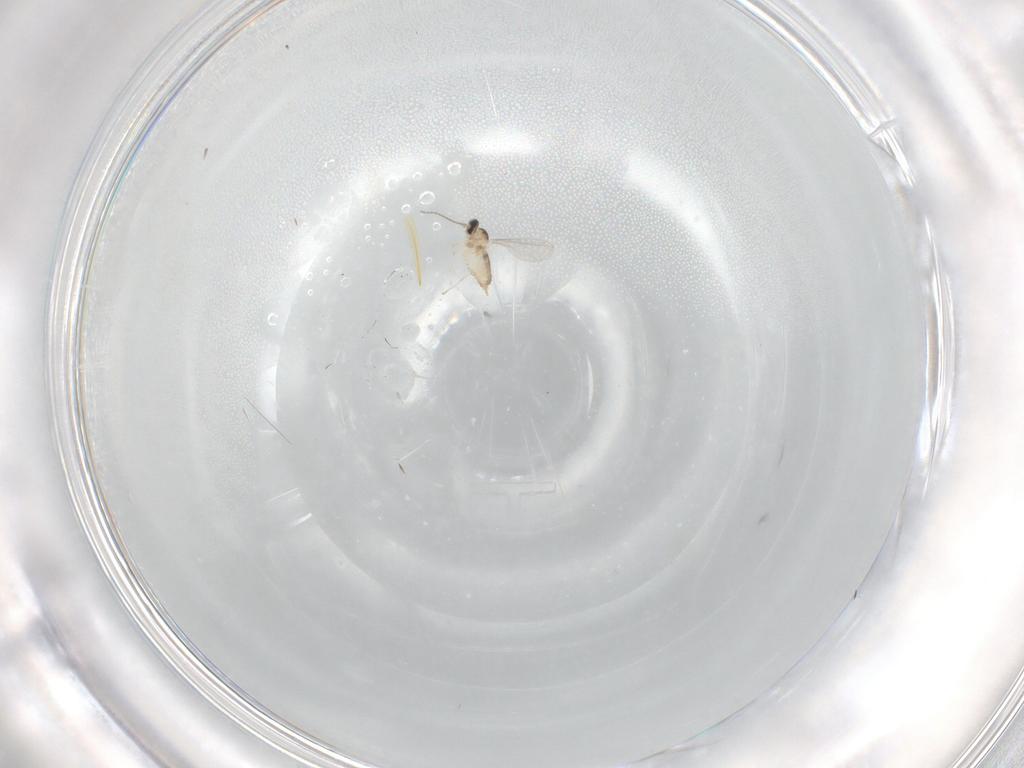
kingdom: Animalia
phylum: Arthropoda
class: Insecta
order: Diptera
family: Cecidomyiidae
